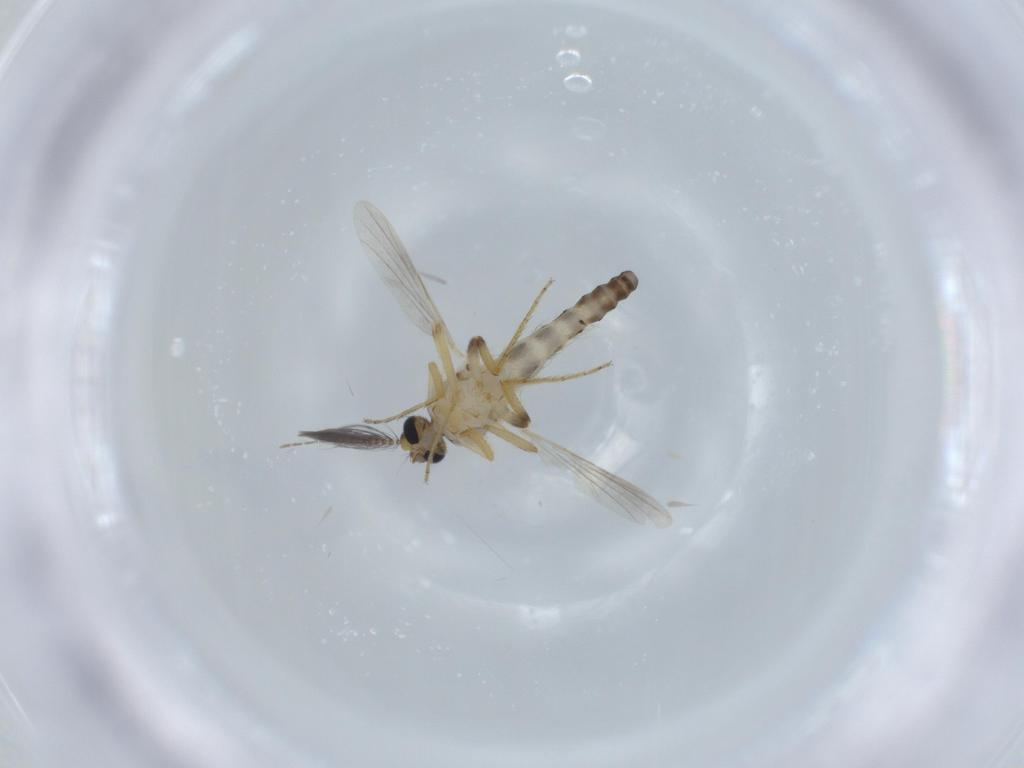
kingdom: Animalia
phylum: Arthropoda
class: Insecta
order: Diptera
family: Ceratopogonidae
